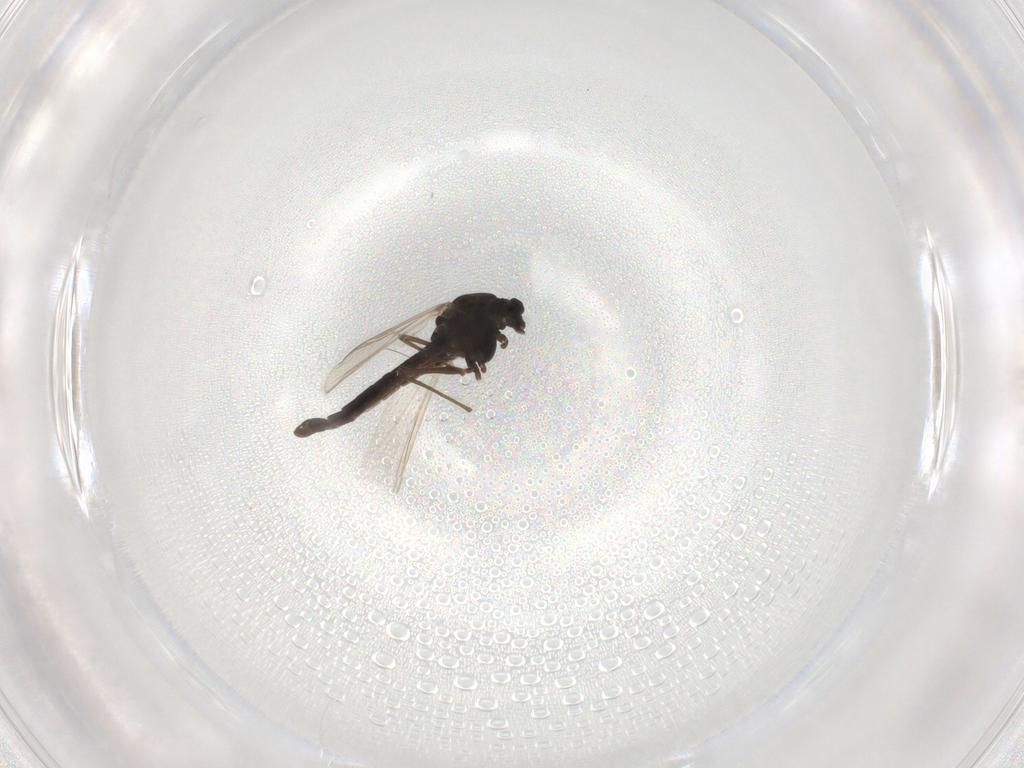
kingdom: Animalia
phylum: Arthropoda
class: Insecta
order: Diptera
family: Chironomidae
